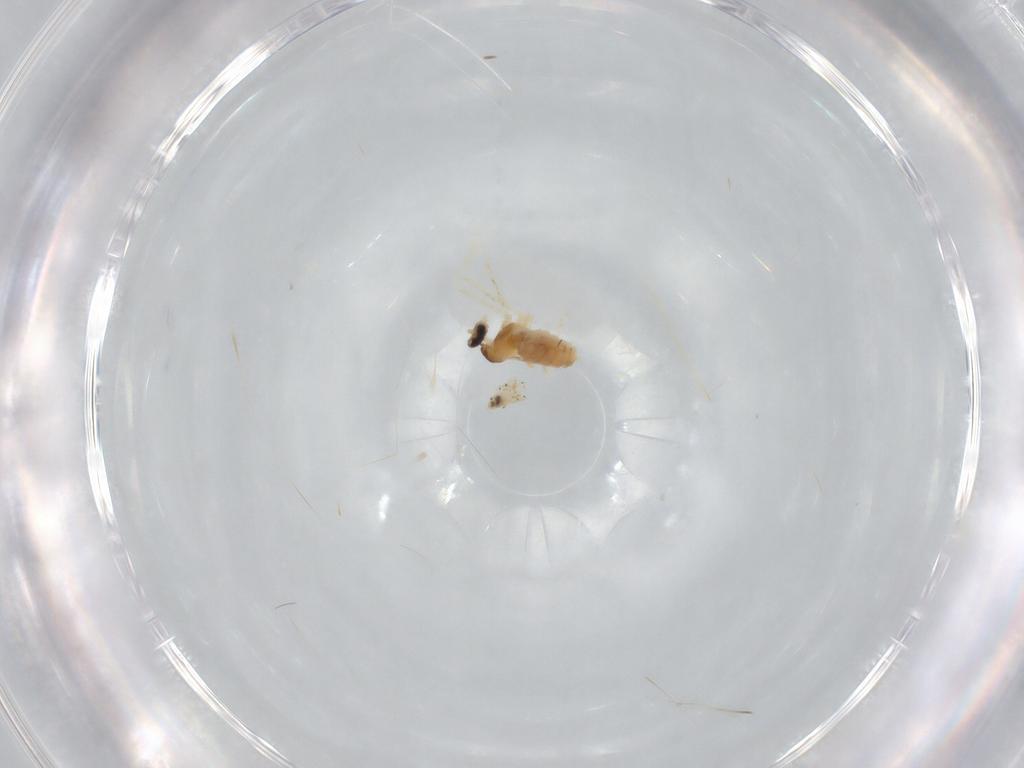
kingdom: Animalia
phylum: Arthropoda
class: Insecta
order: Diptera
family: Cecidomyiidae
